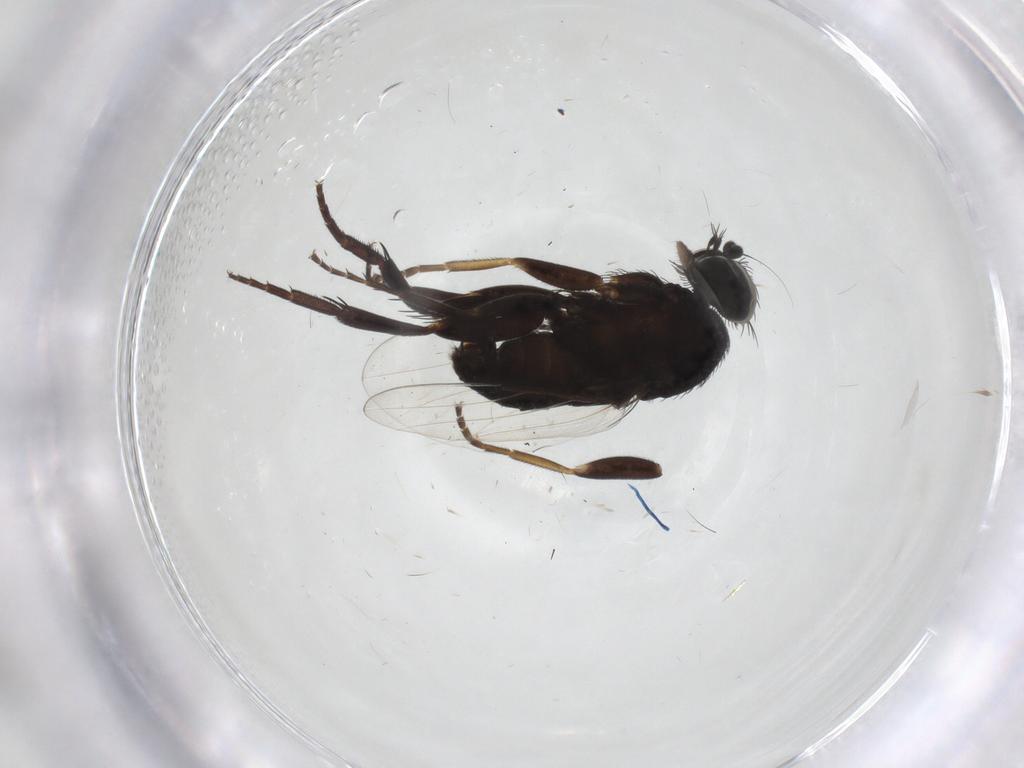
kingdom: Animalia
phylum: Arthropoda
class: Insecta
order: Diptera
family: Phoridae
